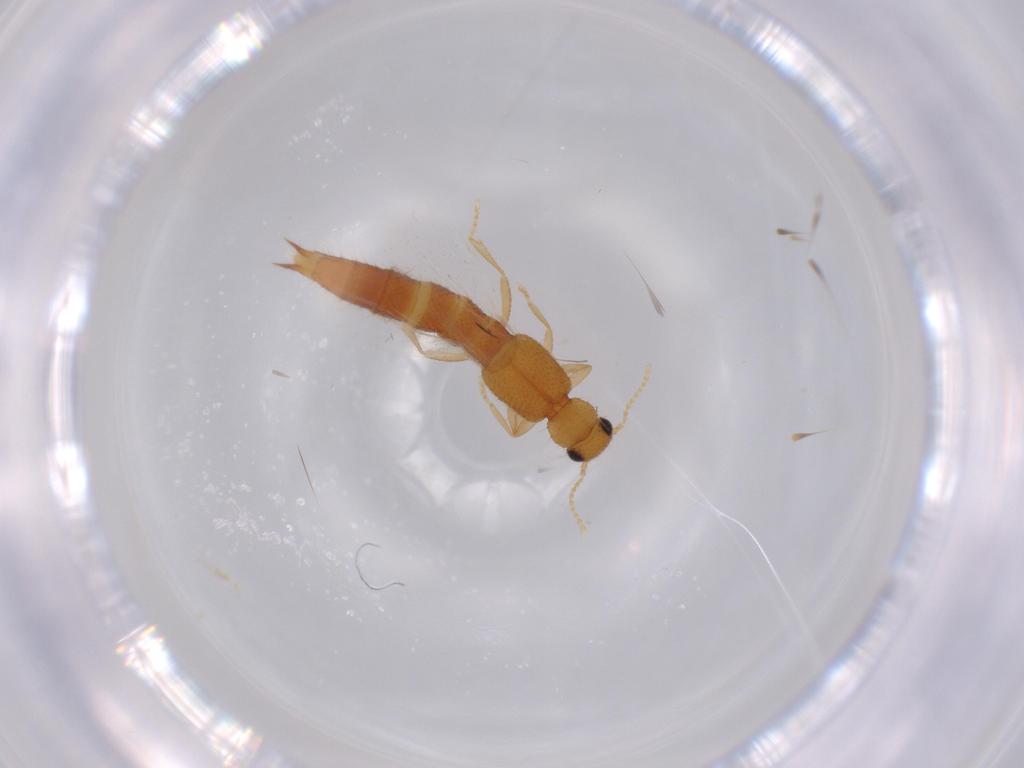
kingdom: Animalia
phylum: Arthropoda
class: Insecta
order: Coleoptera
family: Staphylinidae
